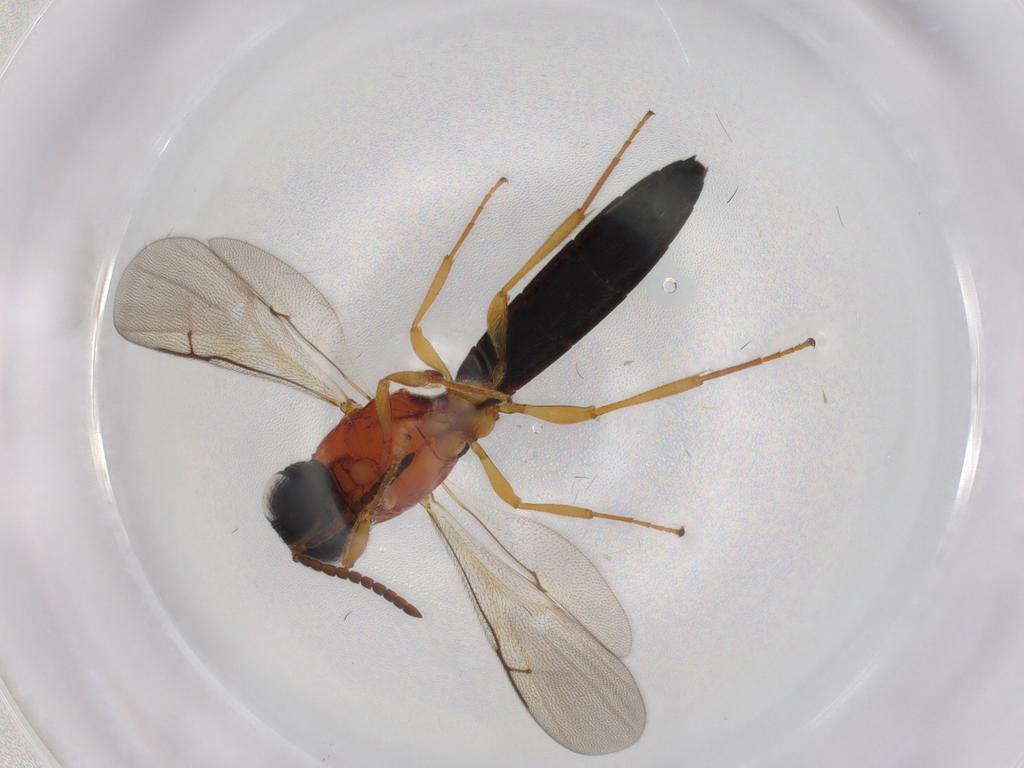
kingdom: Animalia
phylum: Arthropoda
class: Insecta
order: Hymenoptera
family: Scelionidae
